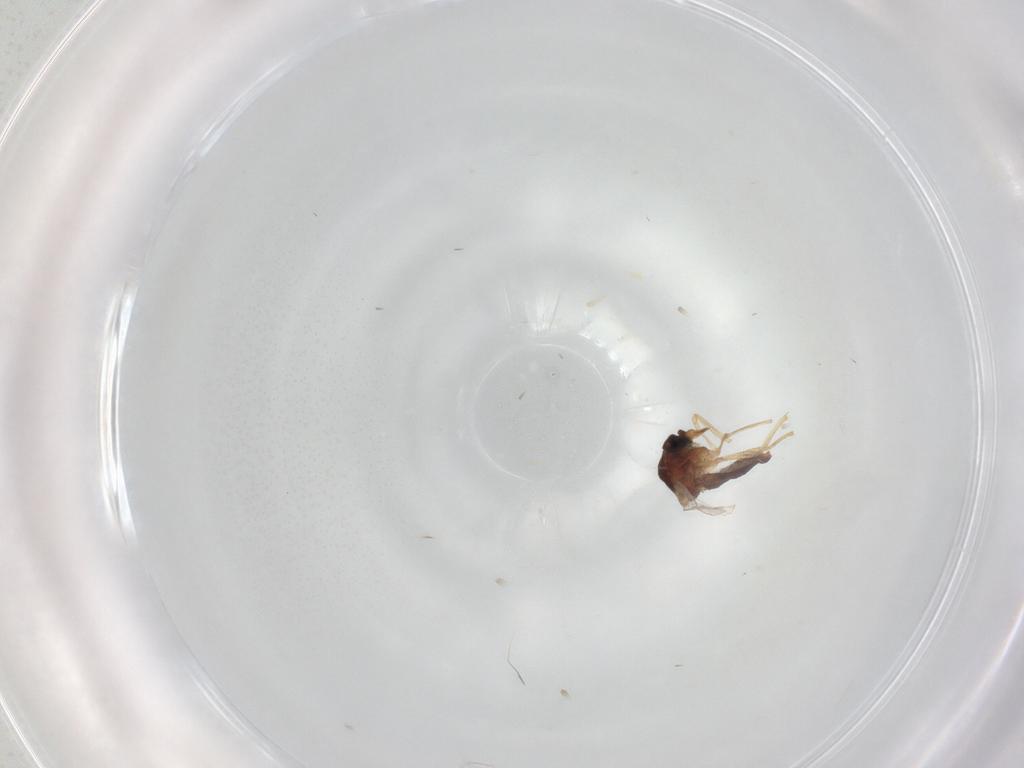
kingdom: Animalia
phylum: Arthropoda
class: Insecta
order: Diptera
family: Ceratopogonidae
